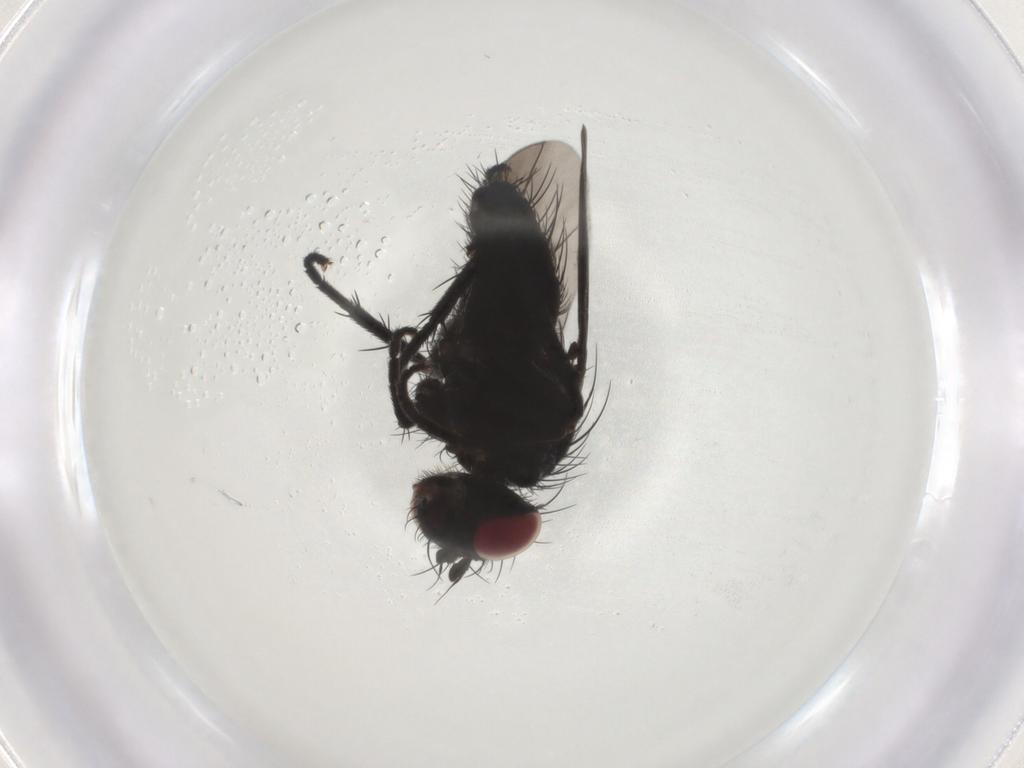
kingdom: Animalia
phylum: Arthropoda
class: Insecta
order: Diptera
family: Tachinidae
